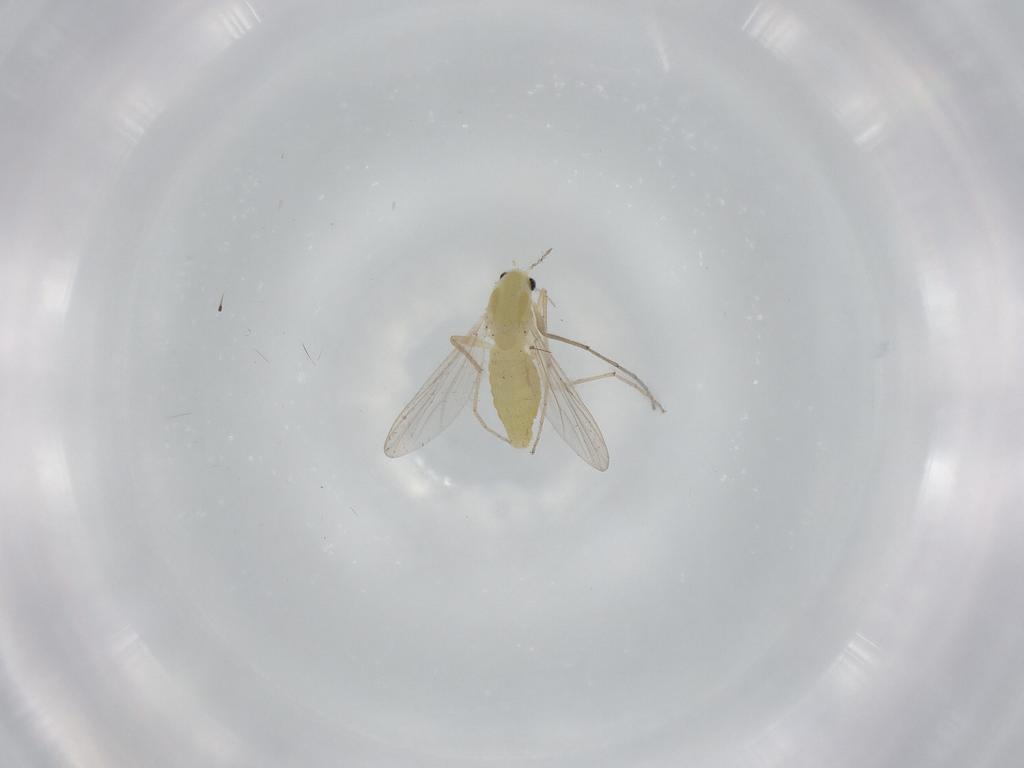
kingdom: Animalia
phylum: Arthropoda
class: Insecta
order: Diptera
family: Chironomidae
